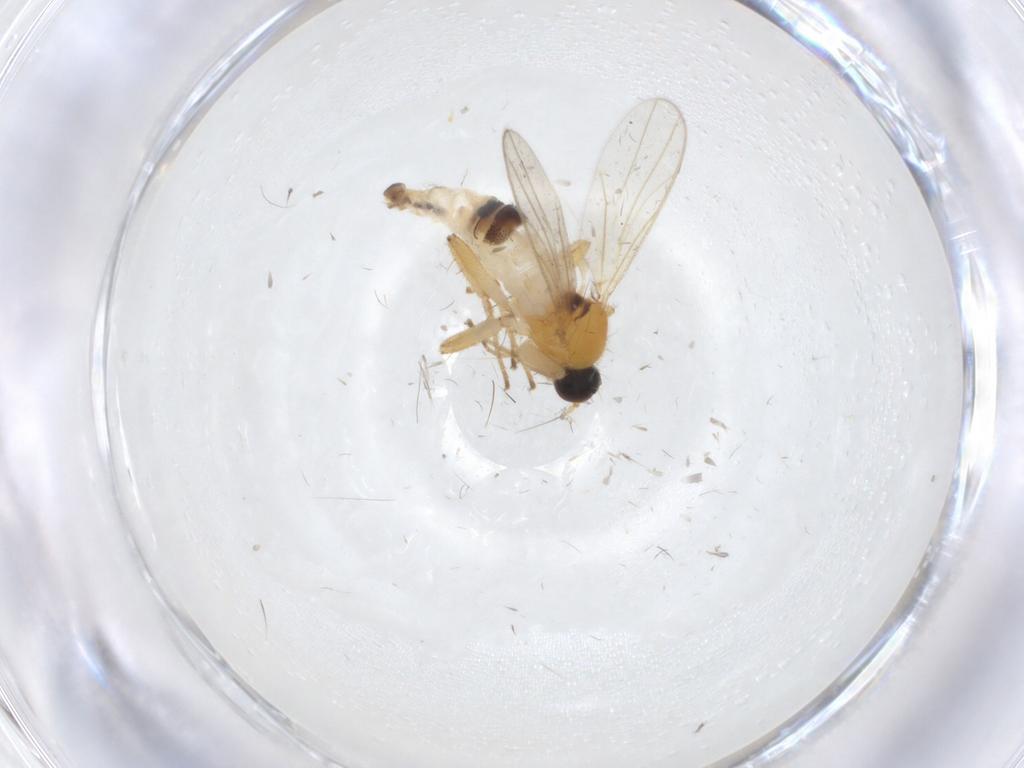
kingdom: Animalia
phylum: Arthropoda
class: Insecta
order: Diptera
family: Hybotidae
